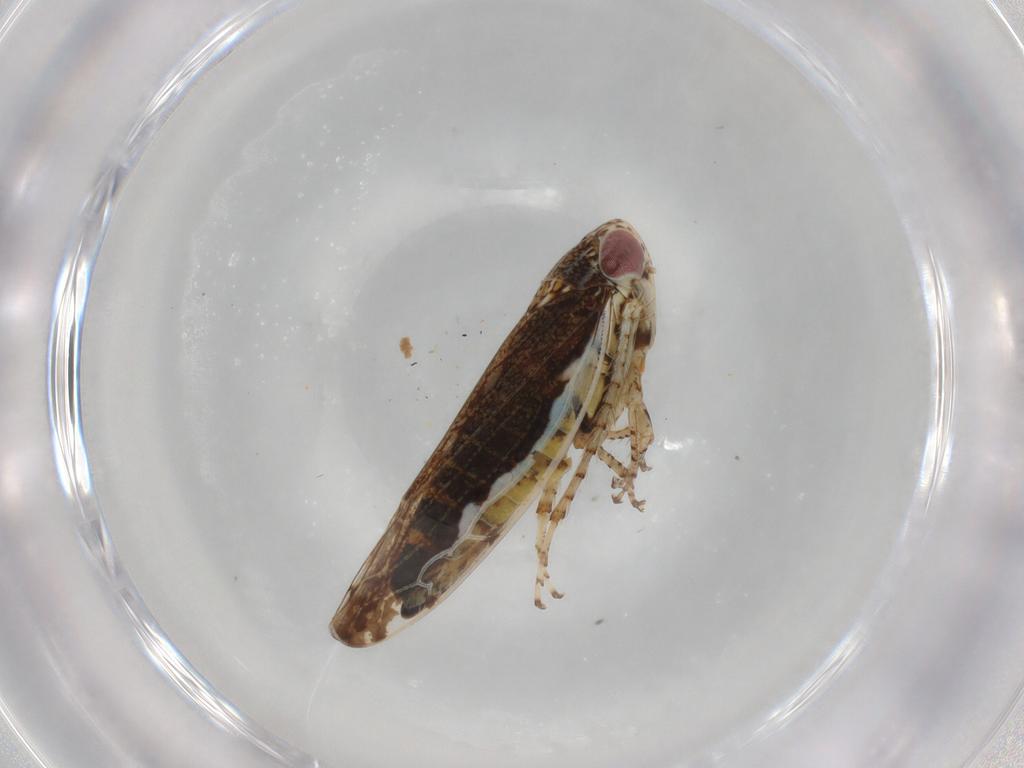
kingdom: Animalia
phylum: Arthropoda
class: Insecta
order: Hemiptera
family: Cicadellidae
